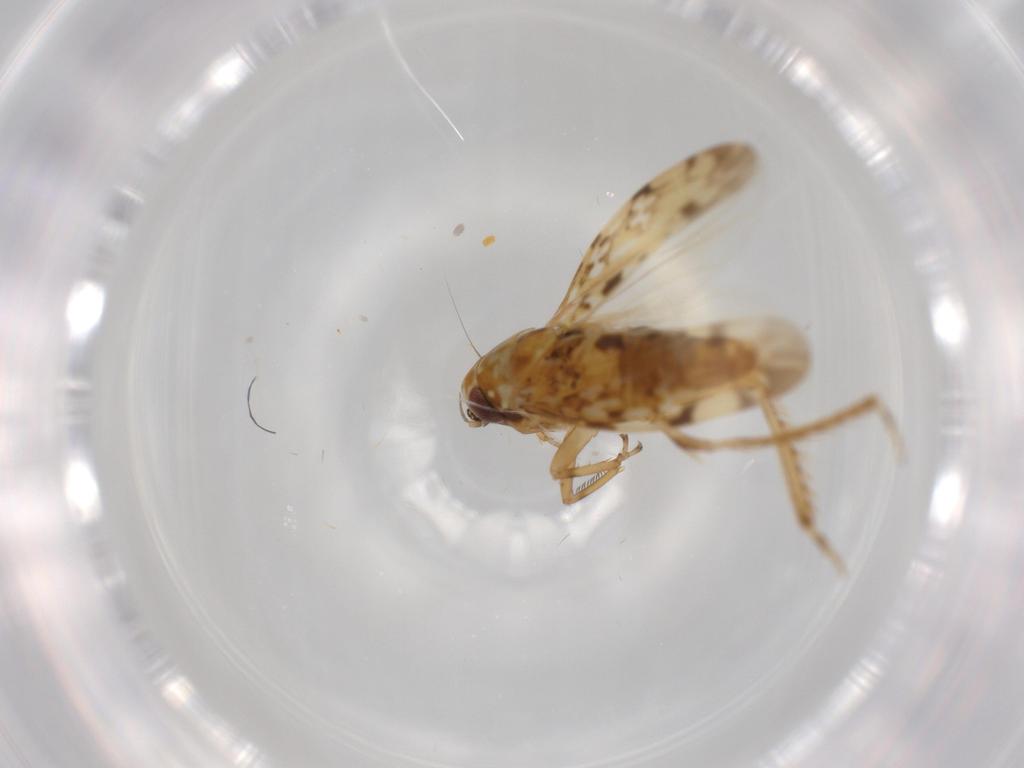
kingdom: Animalia
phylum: Arthropoda
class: Insecta
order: Hemiptera
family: Cicadellidae
